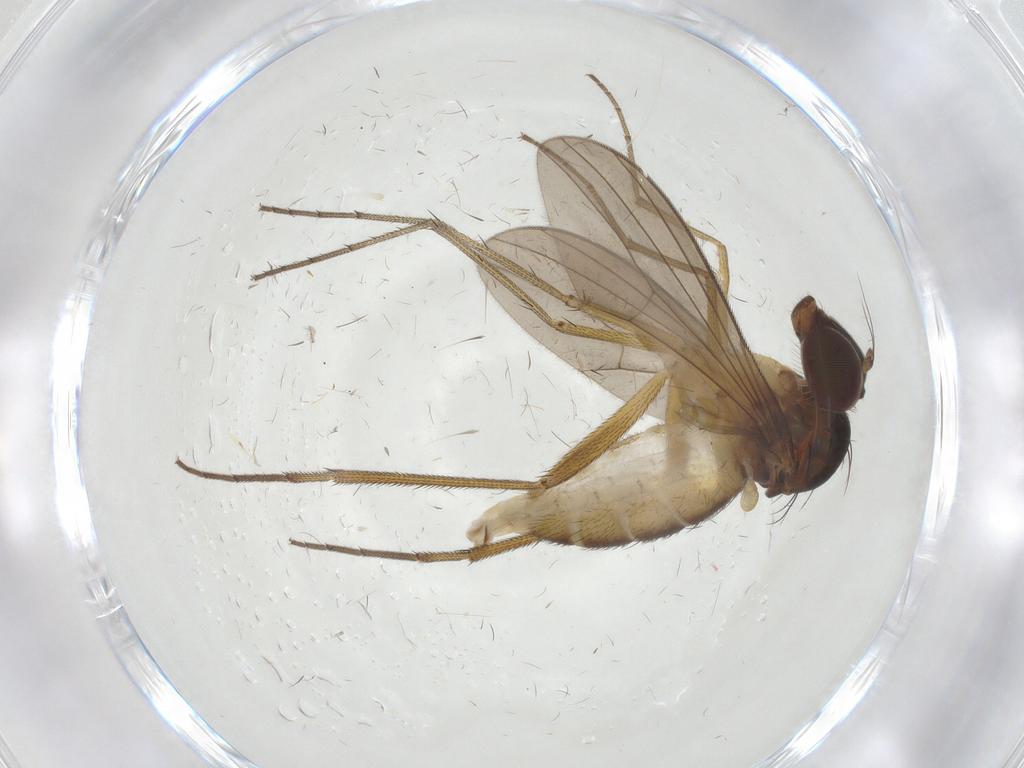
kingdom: Animalia
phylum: Arthropoda
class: Insecta
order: Diptera
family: Dolichopodidae
